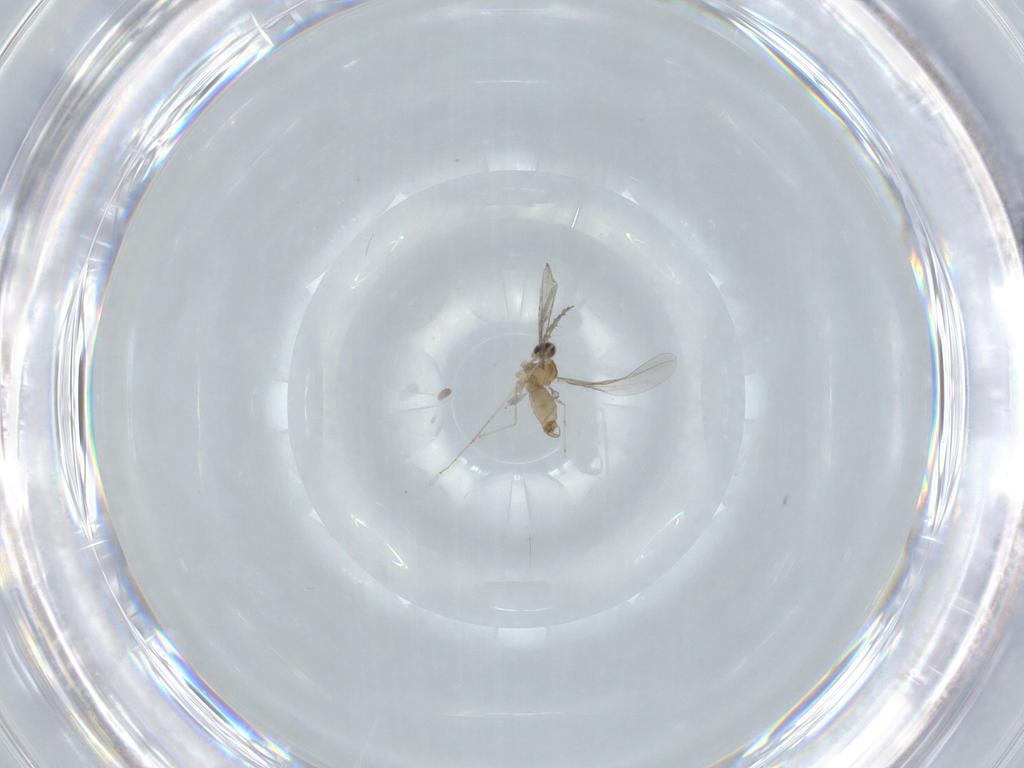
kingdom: Animalia
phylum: Arthropoda
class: Insecta
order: Diptera
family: Cecidomyiidae
